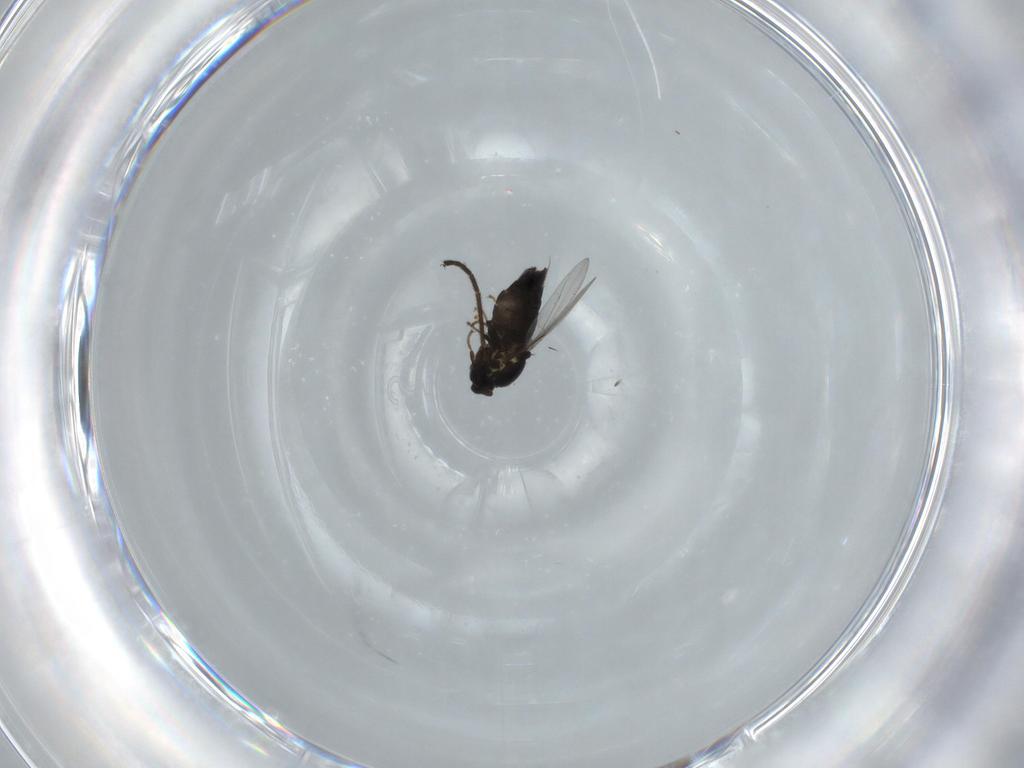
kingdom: Animalia
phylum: Arthropoda
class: Insecta
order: Diptera
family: Scatopsidae
